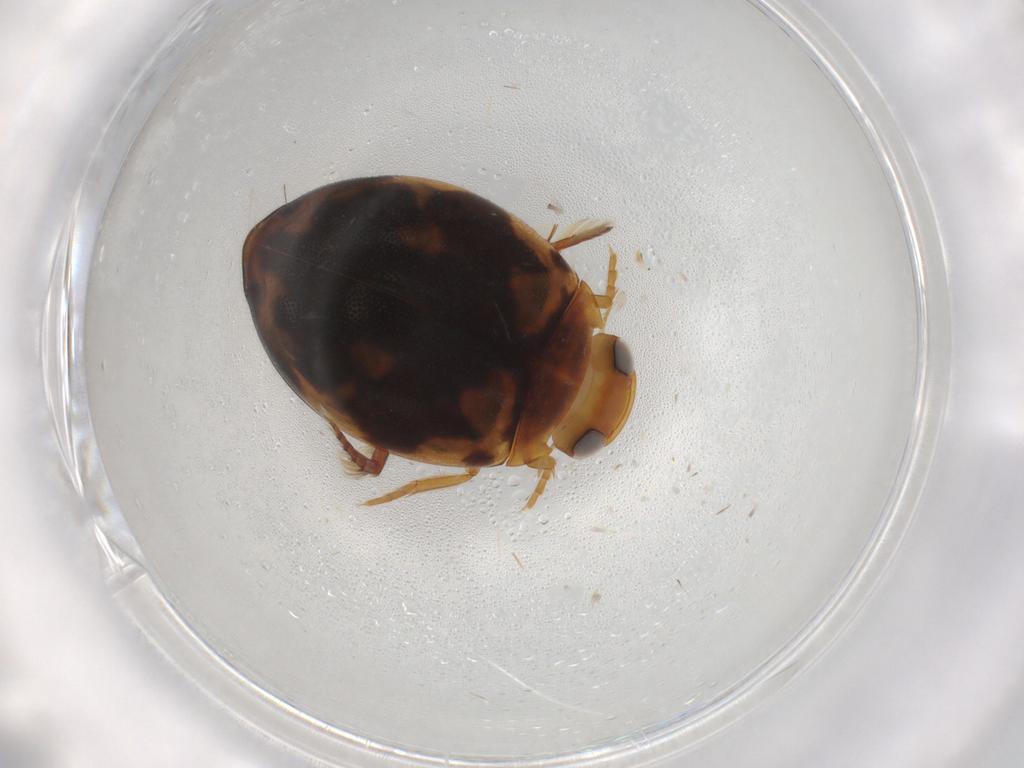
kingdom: Animalia
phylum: Arthropoda
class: Insecta
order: Coleoptera
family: Dytiscidae
